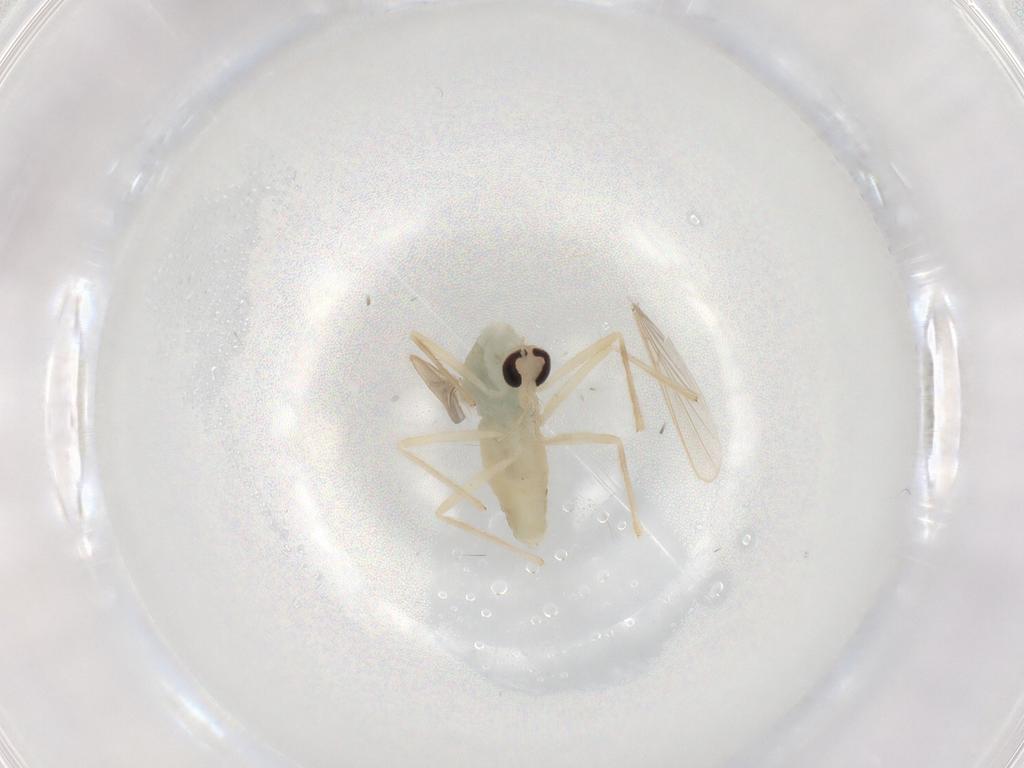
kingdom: Animalia
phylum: Arthropoda
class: Insecta
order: Diptera
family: Chironomidae
